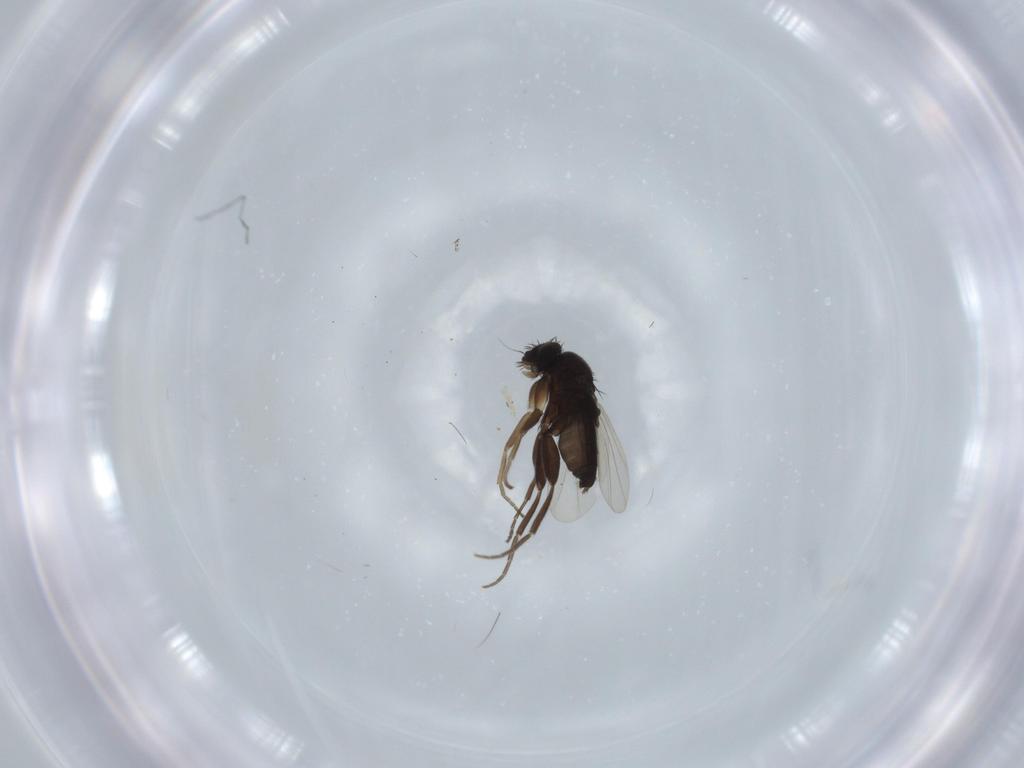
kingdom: Animalia
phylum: Arthropoda
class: Insecta
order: Diptera
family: Phoridae
